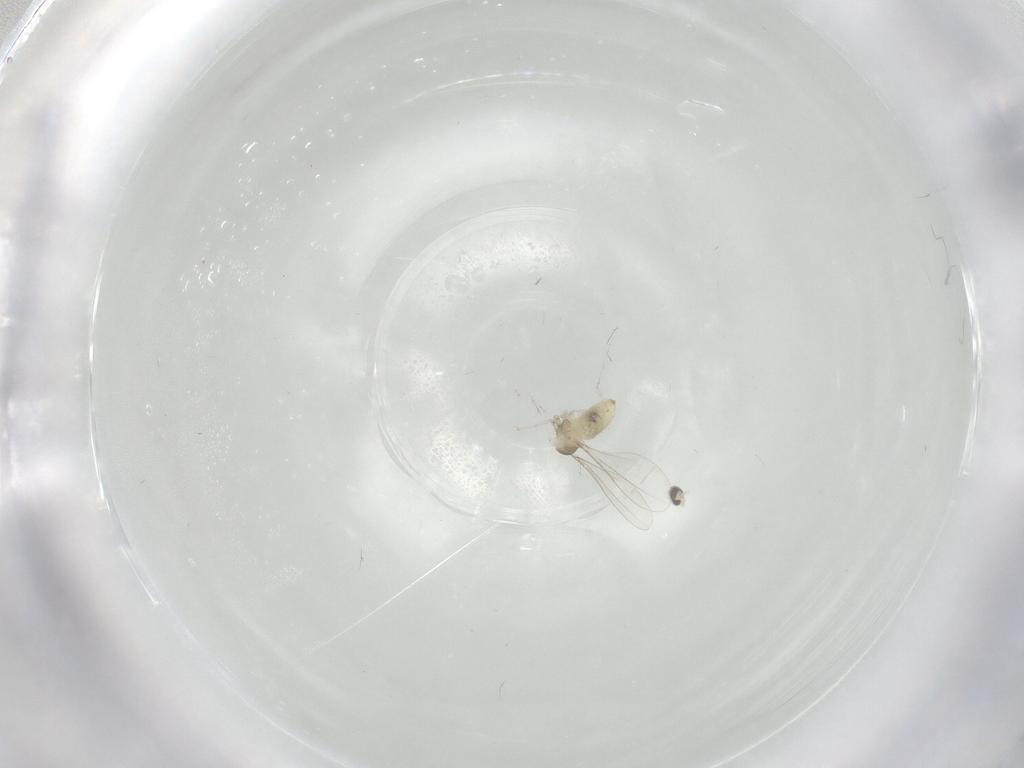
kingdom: Animalia
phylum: Arthropoda
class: Insecta
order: Diptera
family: Cecidomyiidae
